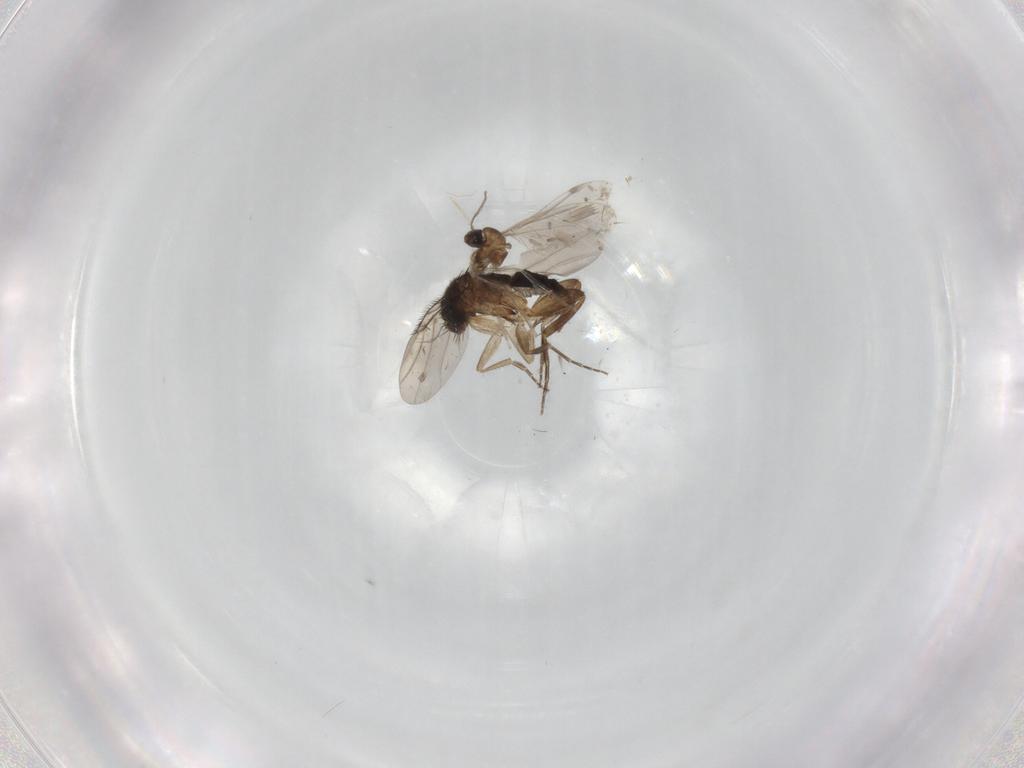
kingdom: Animalia
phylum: Arthropoda
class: Insecta
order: Diptera
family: Phoridae
